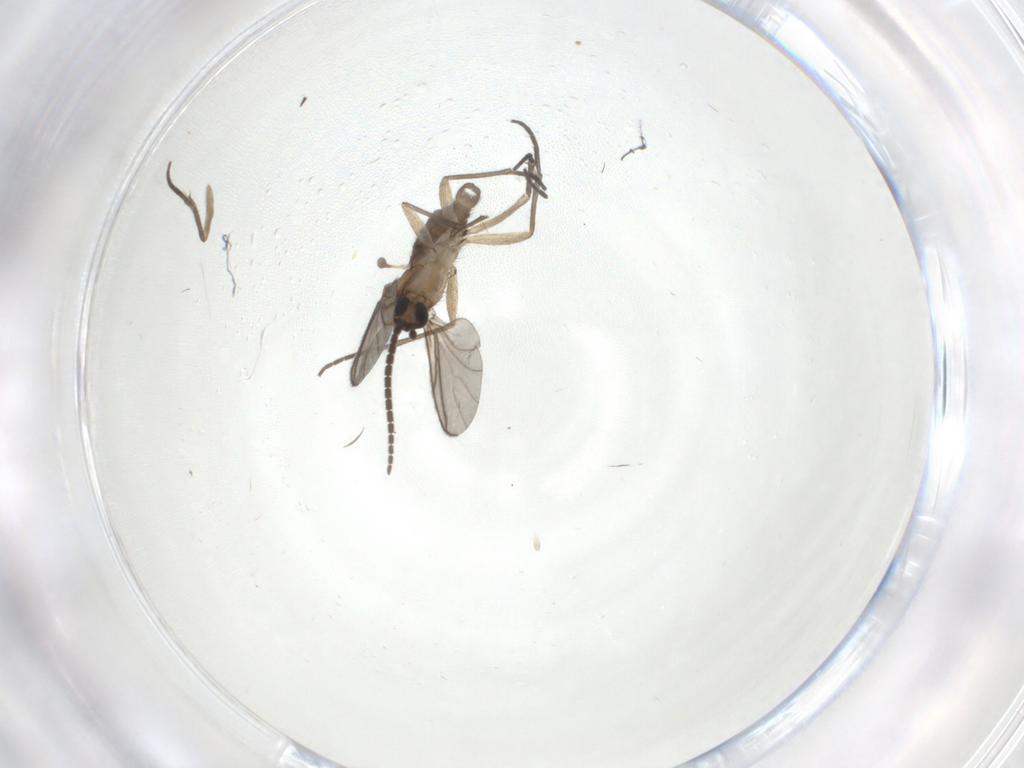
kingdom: Animalia
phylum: Arthropoda
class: Insecta
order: Diptera
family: Sciaridae
